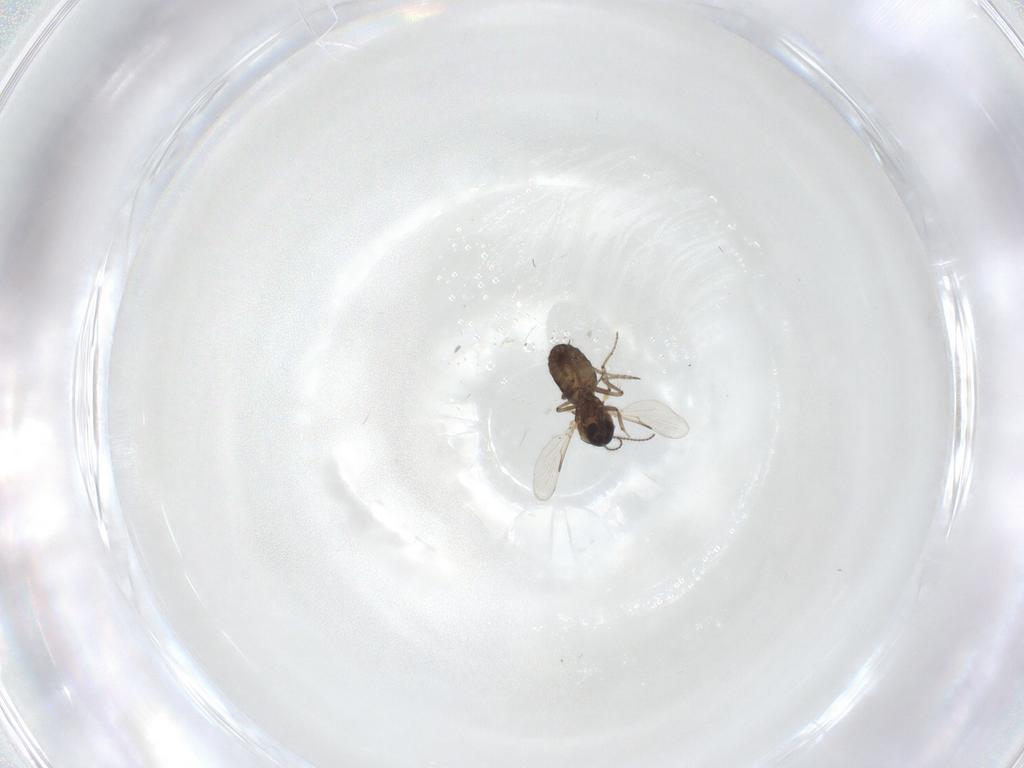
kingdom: Animalia
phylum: Arthropoda
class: Insecta
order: Diptera
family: Ceratopogonidae
